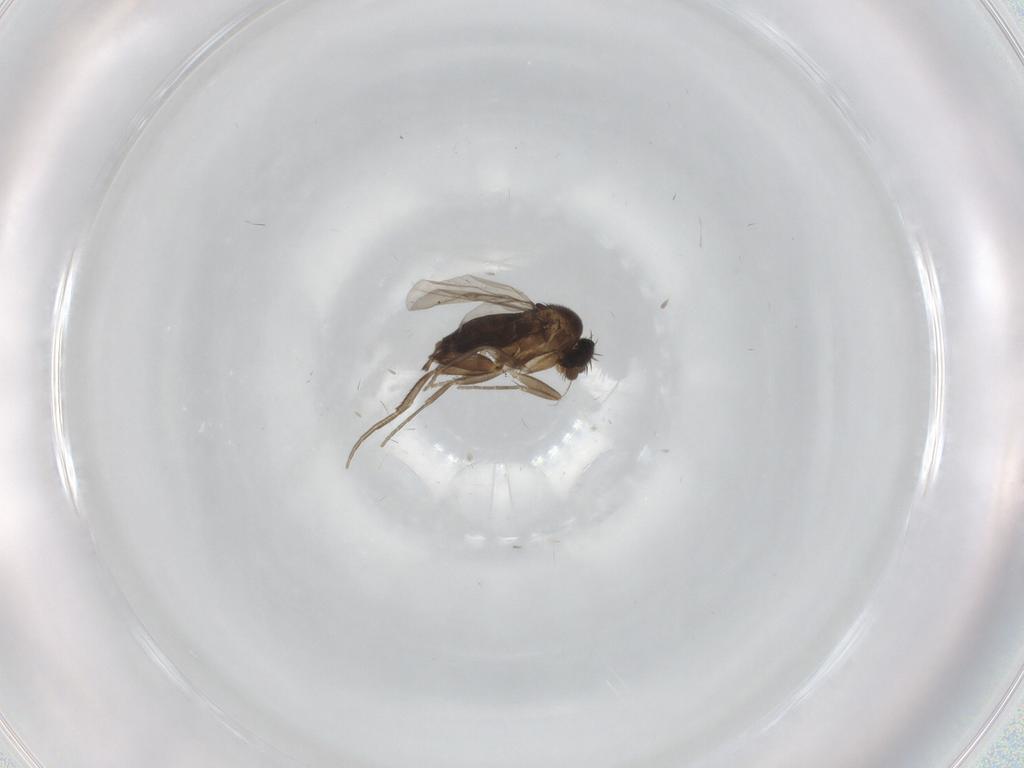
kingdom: Animalia
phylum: Arthropoda
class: Insecta
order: Diptera
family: Phoridae
